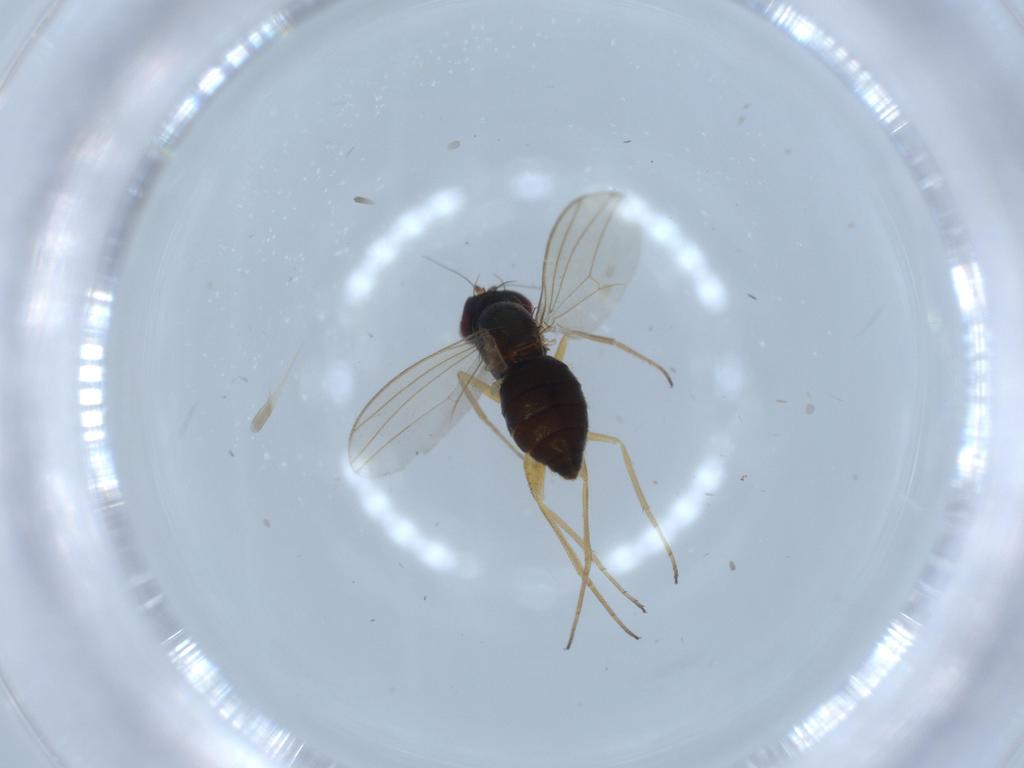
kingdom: Animalia
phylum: Arthropoda
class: Insecta
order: Diptera
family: Dolichopodidae
